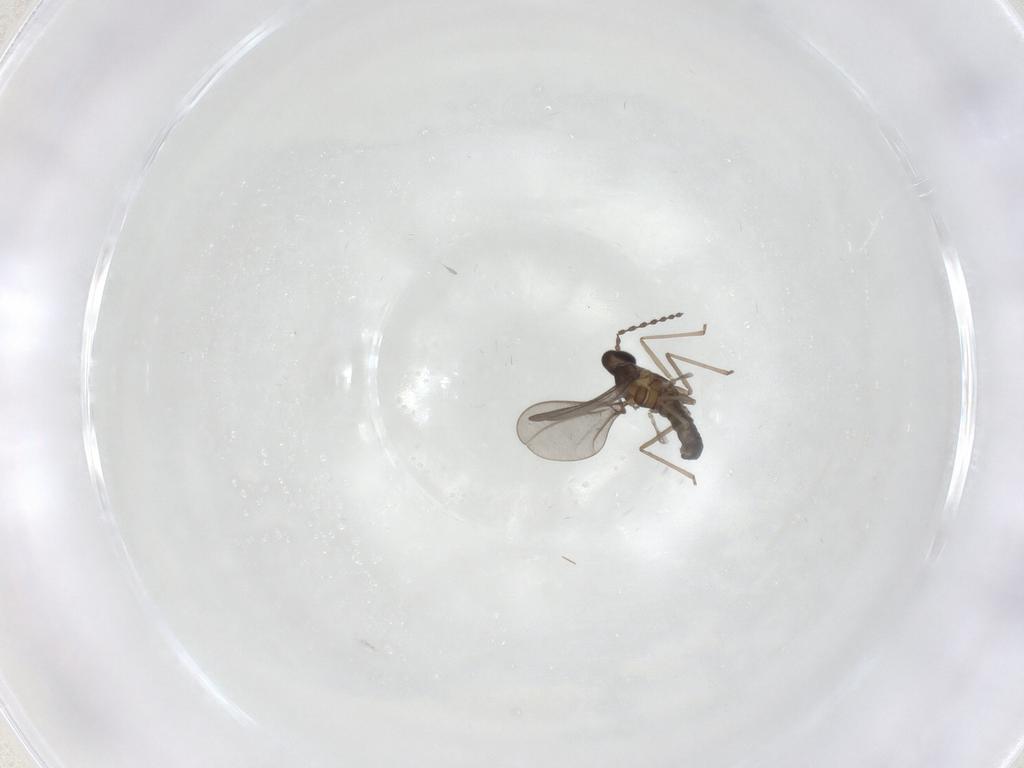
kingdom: Animalia
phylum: Arthropoda
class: Insecta
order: Diptera
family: Chironomidae
